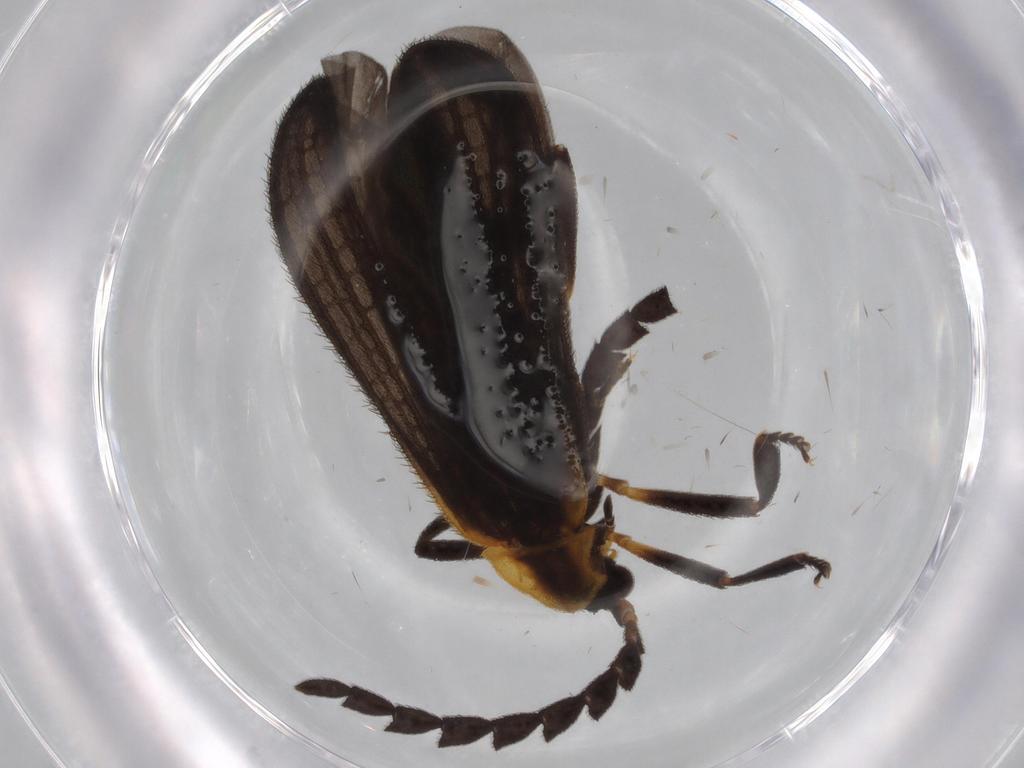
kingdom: Animalia
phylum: Arthropoda
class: Insecta
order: Coleoptera
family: Lycidae
